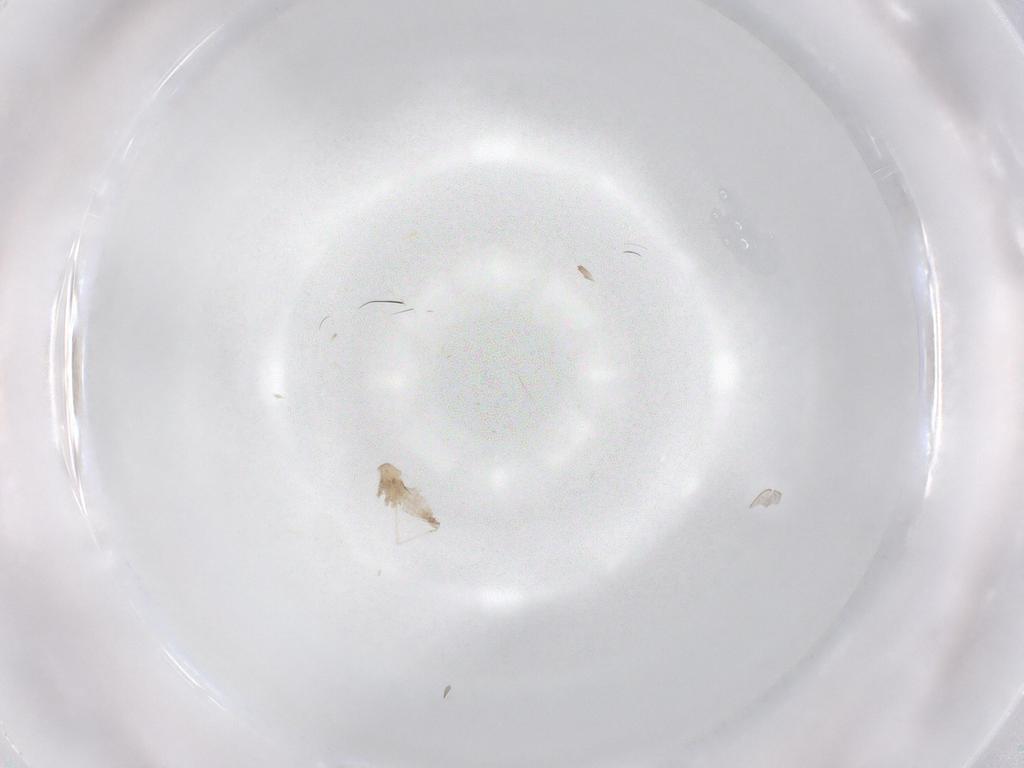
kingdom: Animalia
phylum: Arthropoda
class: Insecta
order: Diptera
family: Cecidomyiidae
